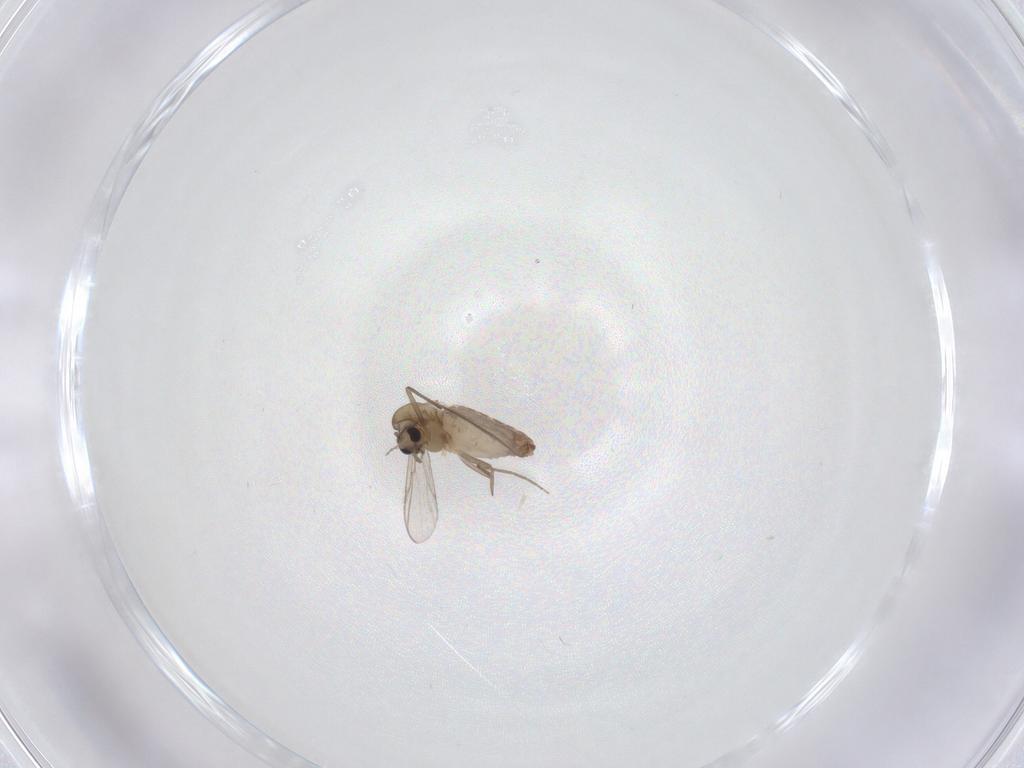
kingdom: Animalia
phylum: Arthropoda
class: Insecta
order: Diptera
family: Chironomidae
